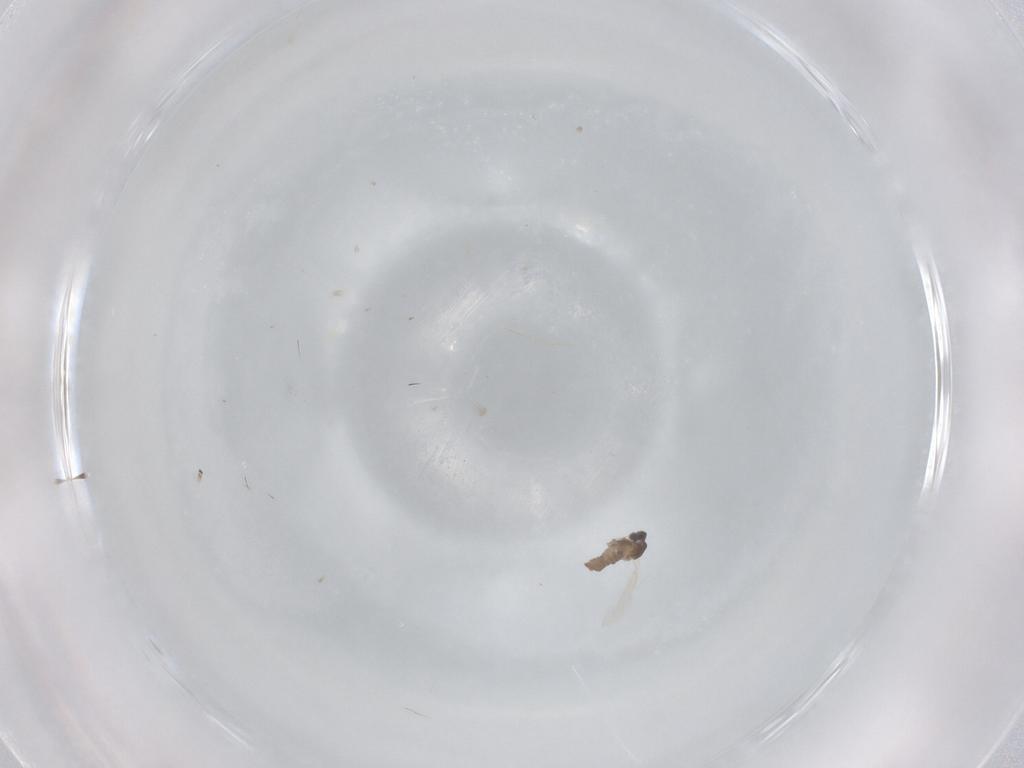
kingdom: Animalia
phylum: Arthropoda
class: Insecta
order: Diptera
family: Cecidomyiidae
